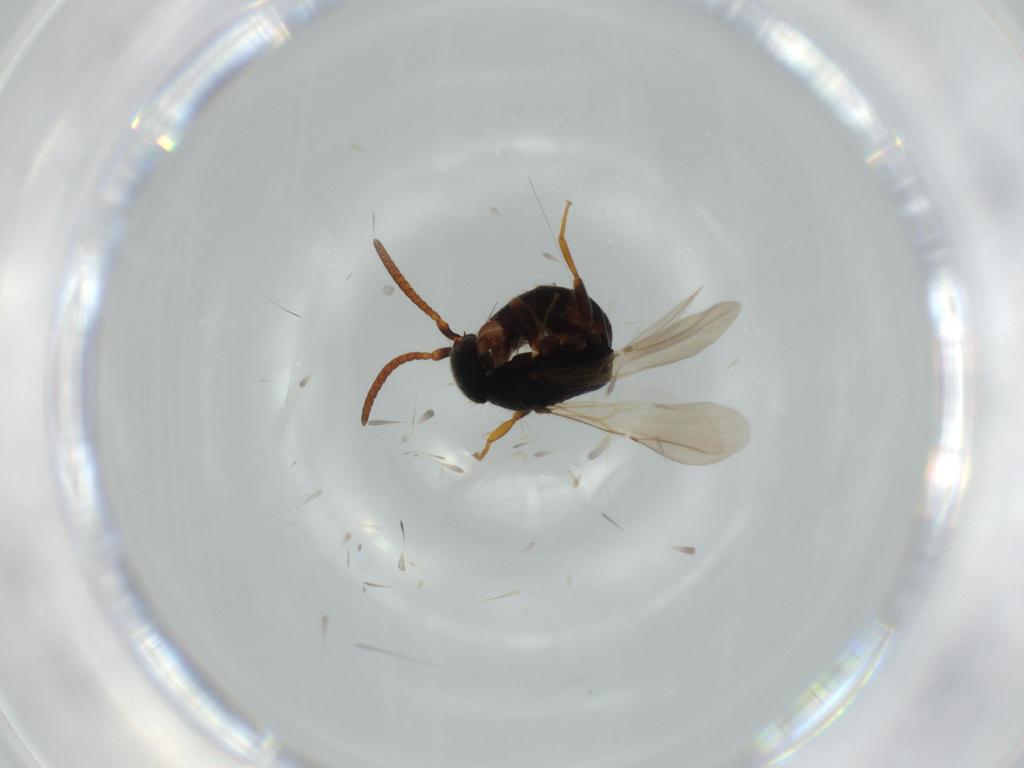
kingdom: Animalia
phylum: Arthropoda
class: Insecta
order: Hymenoptera
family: Bethylidae
